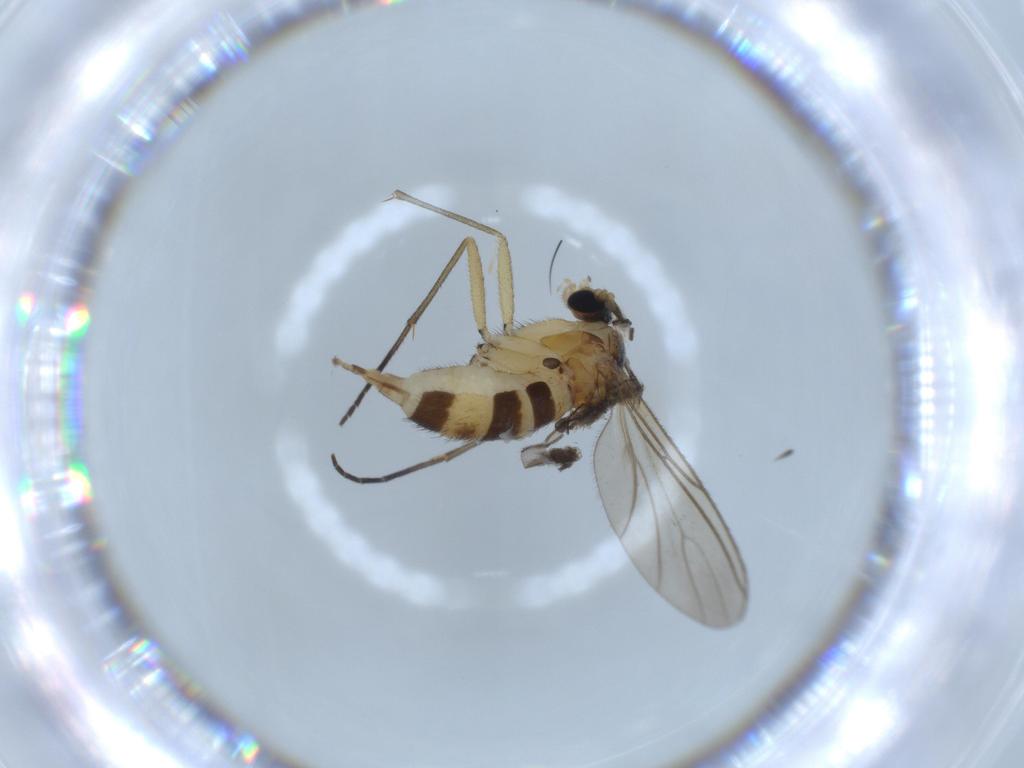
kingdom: Animalia
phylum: Arthropoda
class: Insecta
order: Diptera
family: Sciaridae
